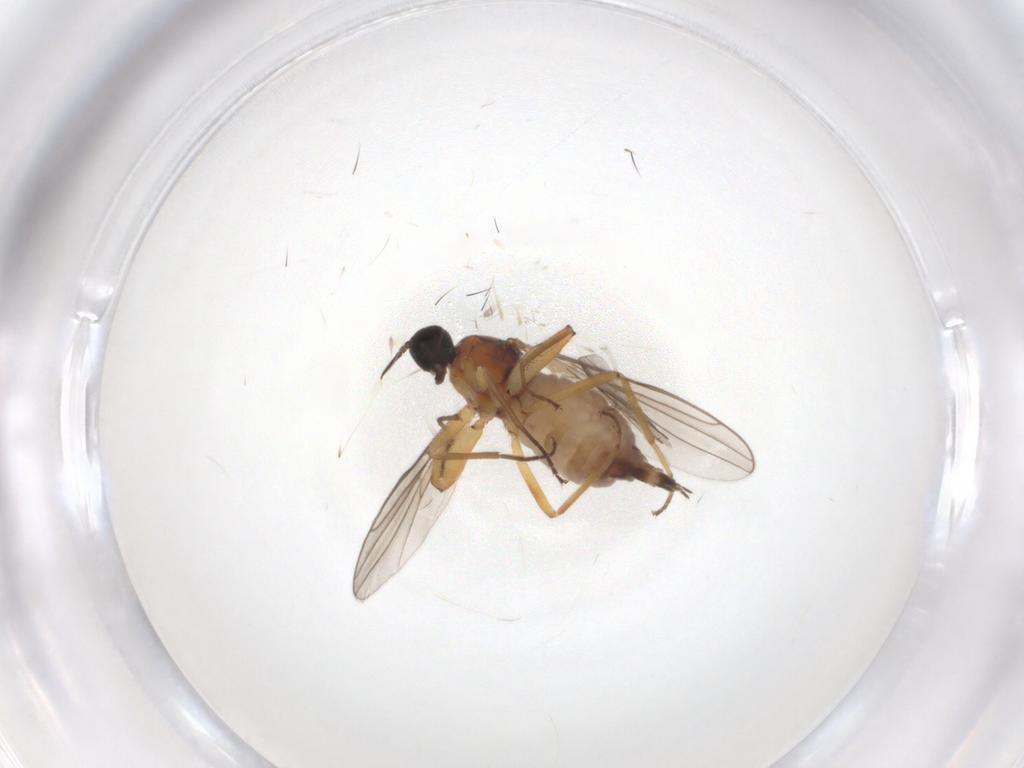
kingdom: Animalia
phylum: Arthropoda
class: Insecta
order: Diptera
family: Hybotidae
